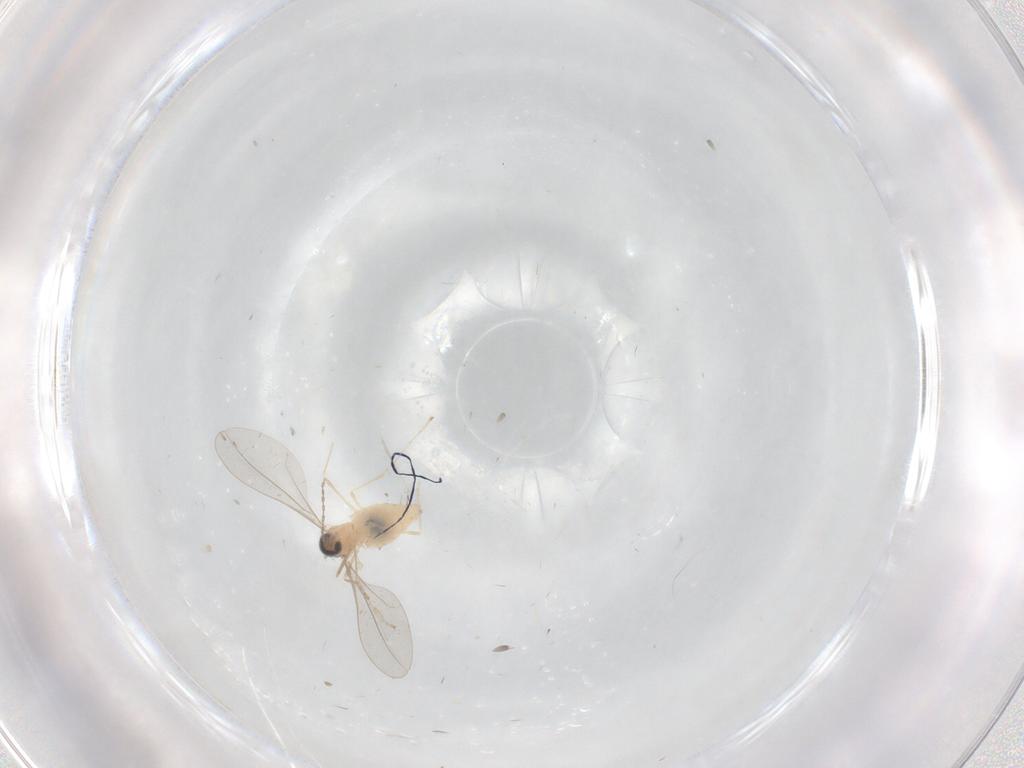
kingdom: Animalia
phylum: Arthropoda
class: Insecta
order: Diptera
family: Cecidomyiidae
